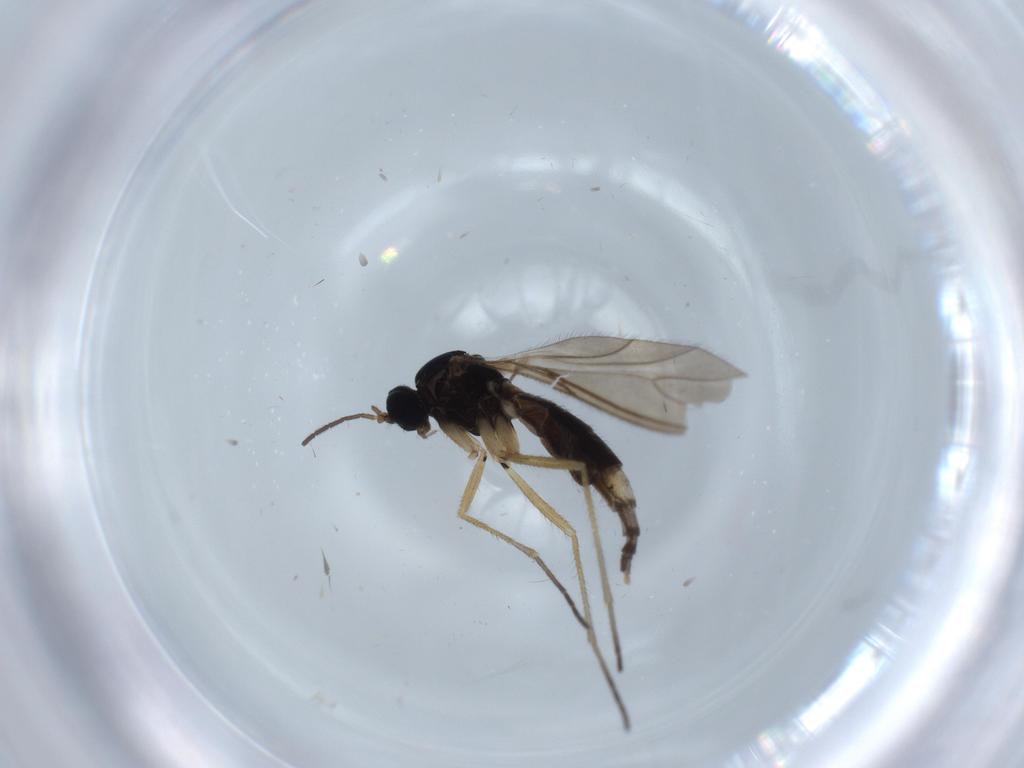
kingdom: Animalia
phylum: Arthropoda
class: Insecta
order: Diptera
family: Sciaridae
